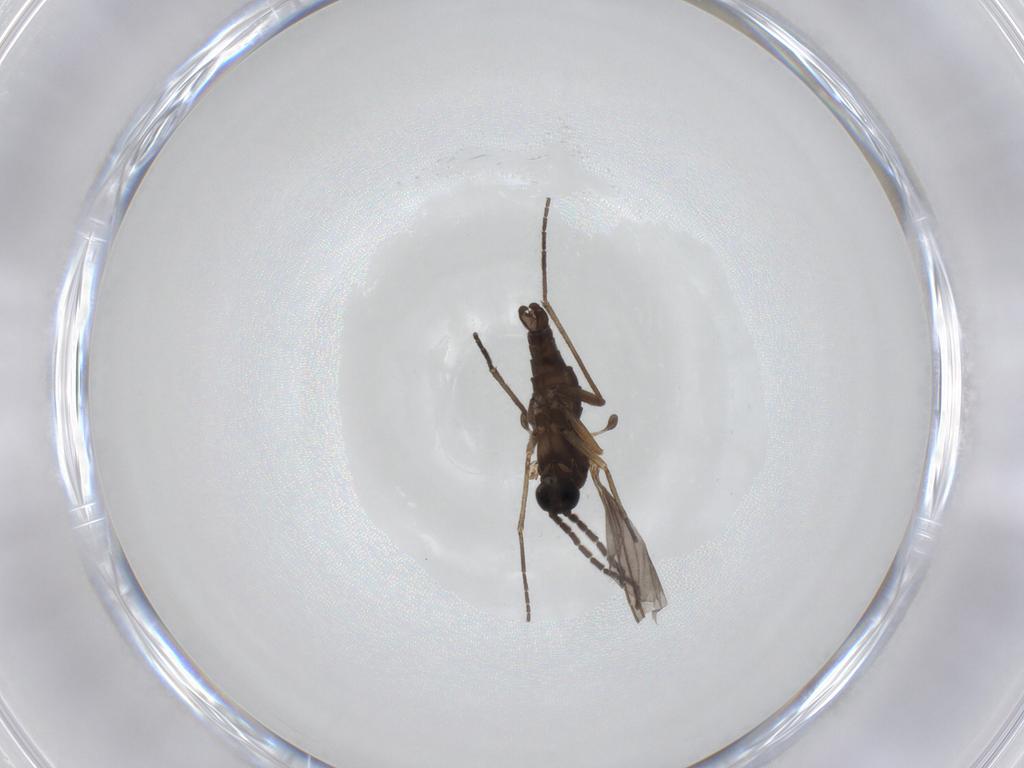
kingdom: Animalia
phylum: Arthropoda
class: Insecta
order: Diptera
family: Sciaridae
